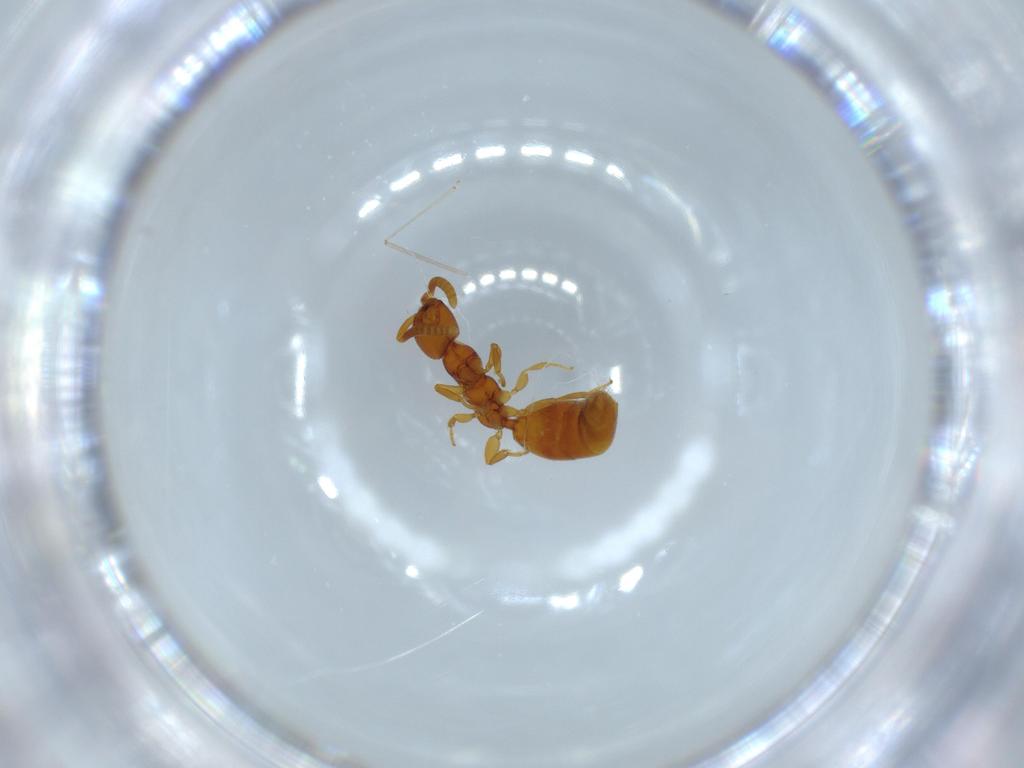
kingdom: Animalia
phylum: Arthropoda
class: Insecta
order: Hymenoptera
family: Bethylidae
